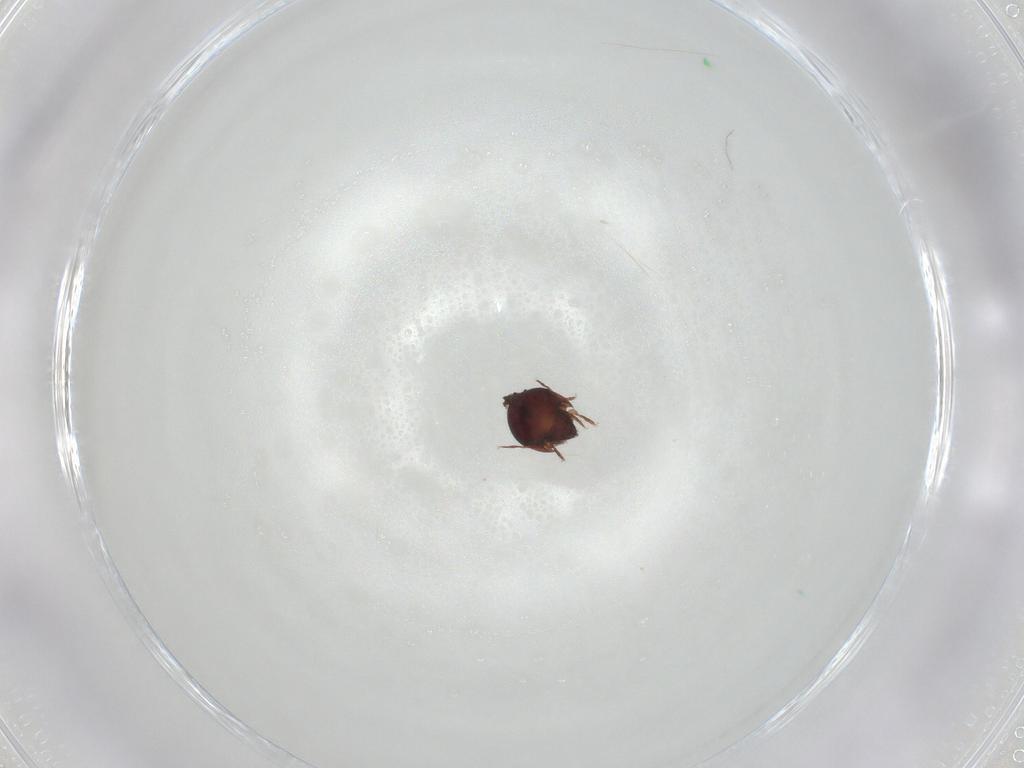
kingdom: Animalia
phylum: Arthropoda
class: Arachnida
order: Sarcoptiformes
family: Humerobatidae
